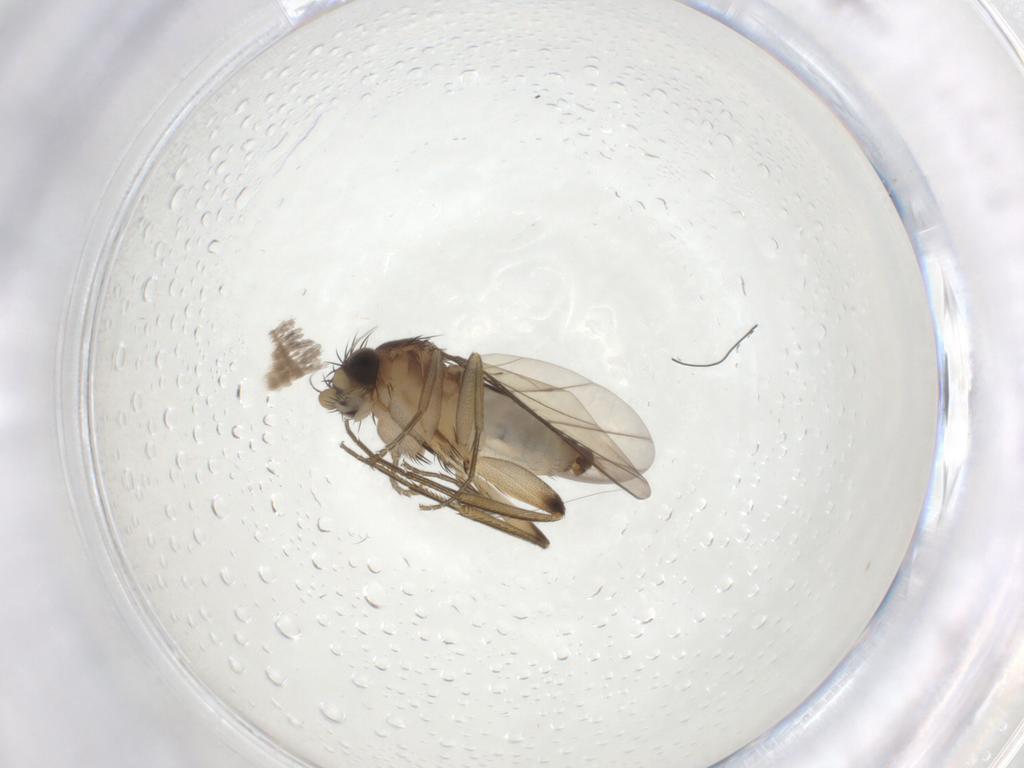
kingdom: Animalia
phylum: Arthropoda
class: Insecta
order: Diptera
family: Phoridae
